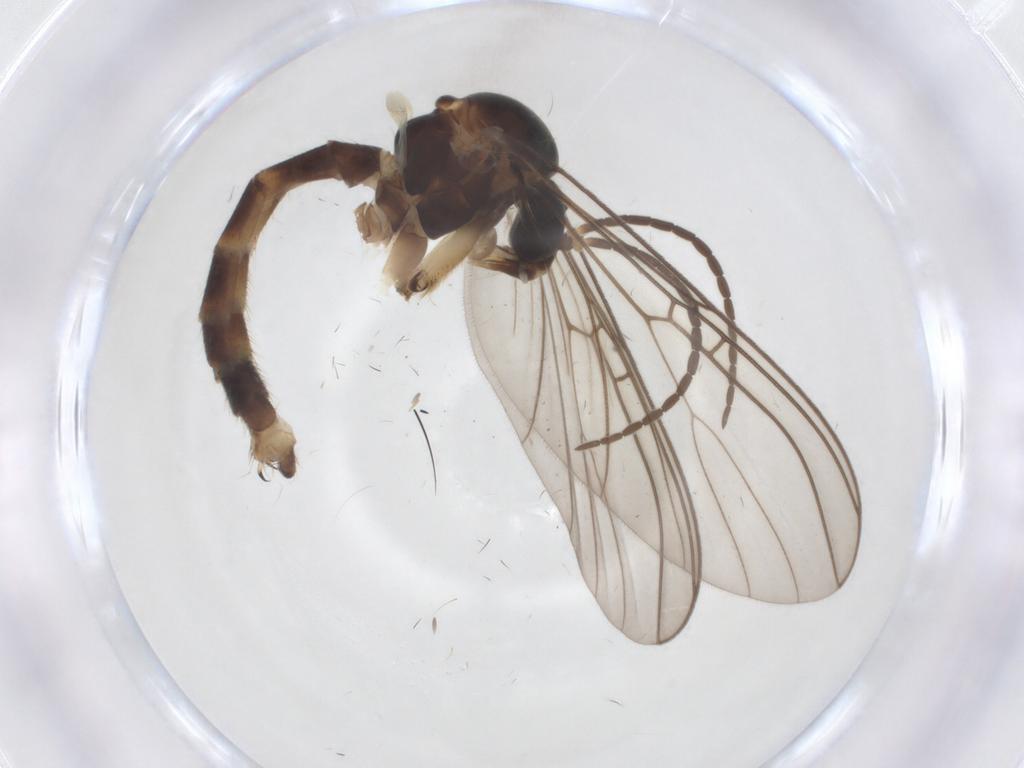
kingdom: Animalia
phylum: Arthropoda
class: Insecta
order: Diptera
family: Mycetophilidae
